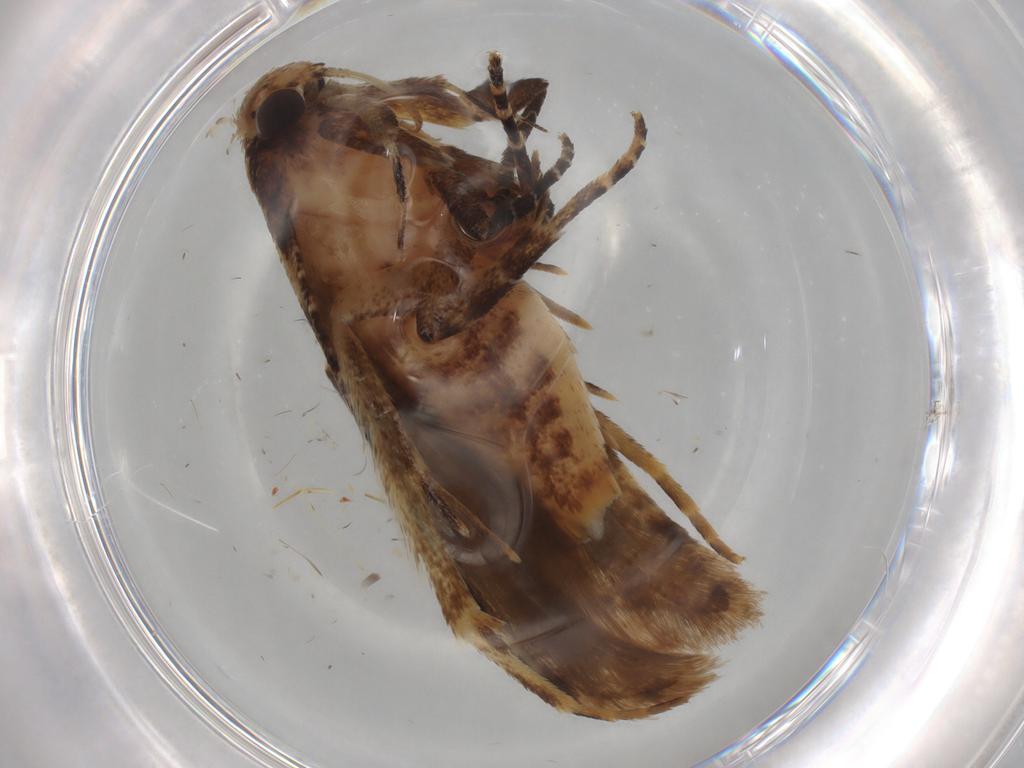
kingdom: Animalia
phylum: Arthropoda
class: Insecta
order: Lepidoptera
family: Gelechiidae
